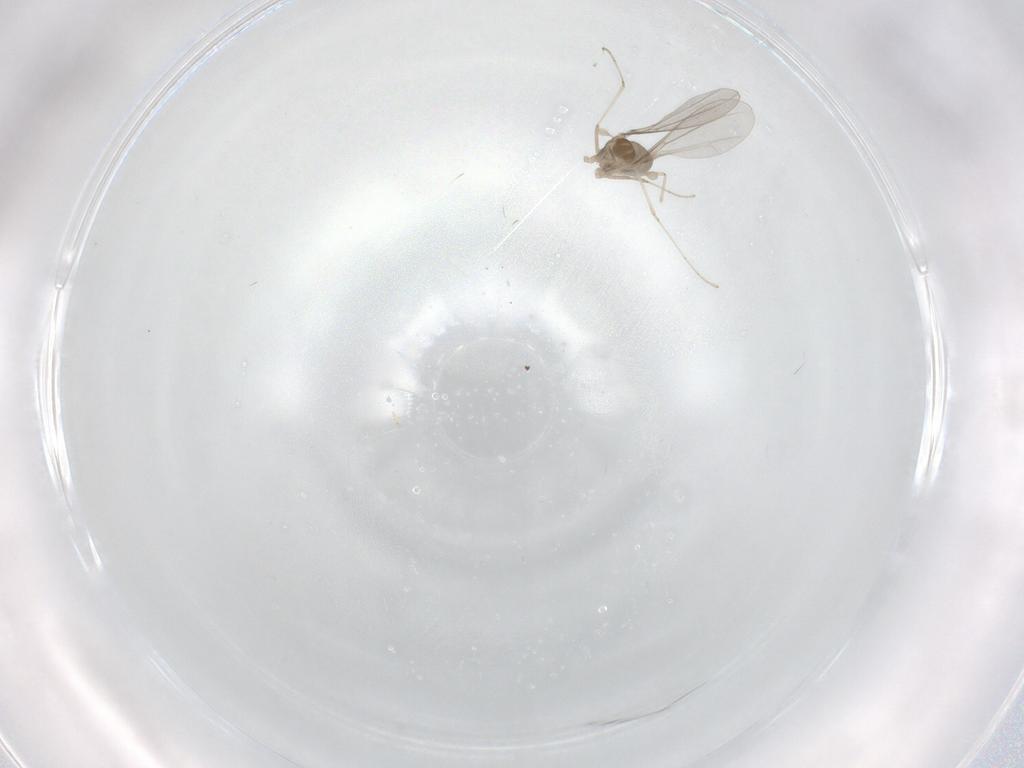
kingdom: Animalia
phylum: Arthropoda
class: Insecta
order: Diptera
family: Cecidomyiidae
